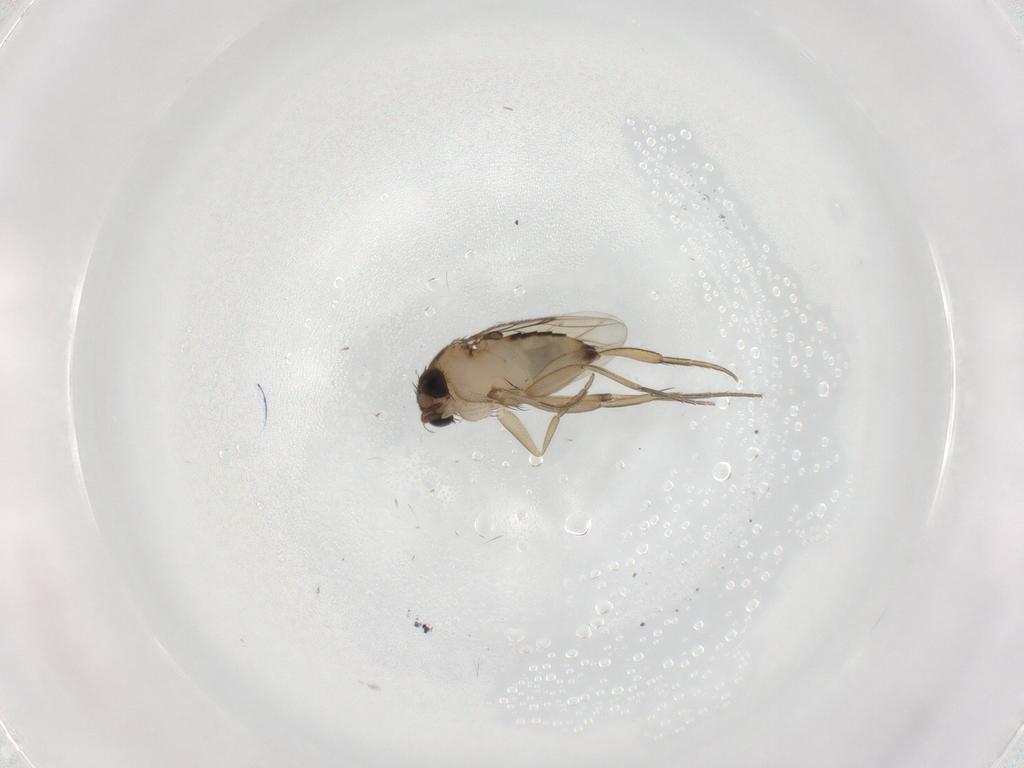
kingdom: Animalia
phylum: Arthropoda
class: Insecta
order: Diptera
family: Phoridae
